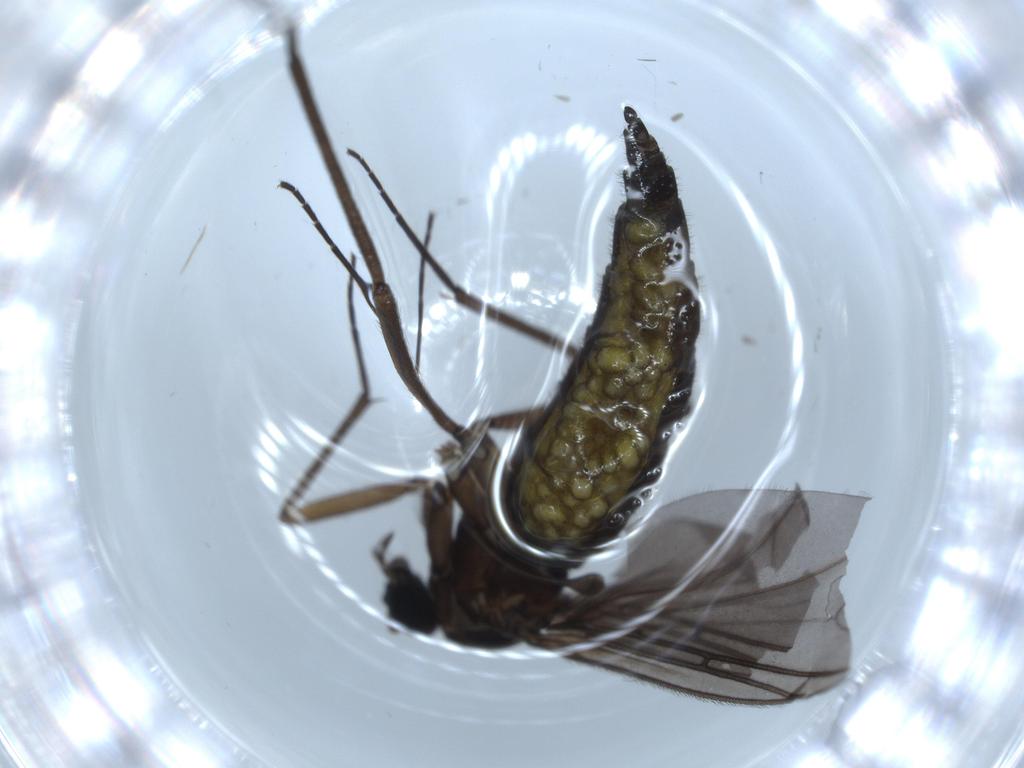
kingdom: Animalia
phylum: Arthropoda
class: Insecta
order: Diptera
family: Sciaridae
